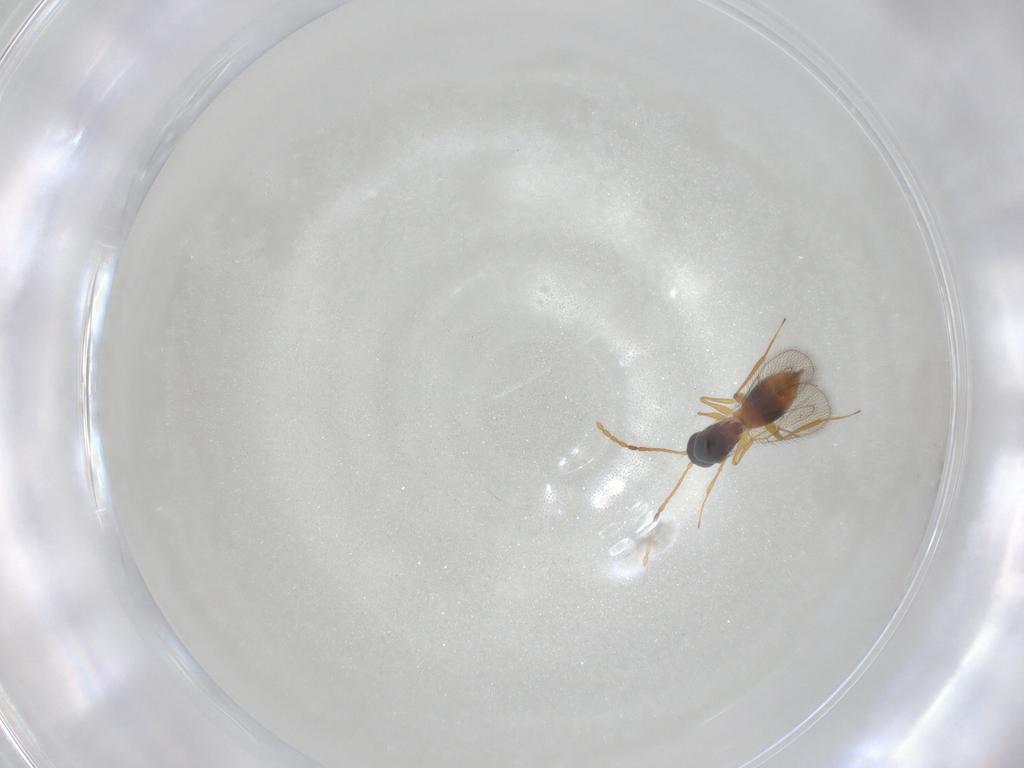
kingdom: Animalia
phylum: Arthropoda
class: Insecta
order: Hymenoptera
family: Figitidae
